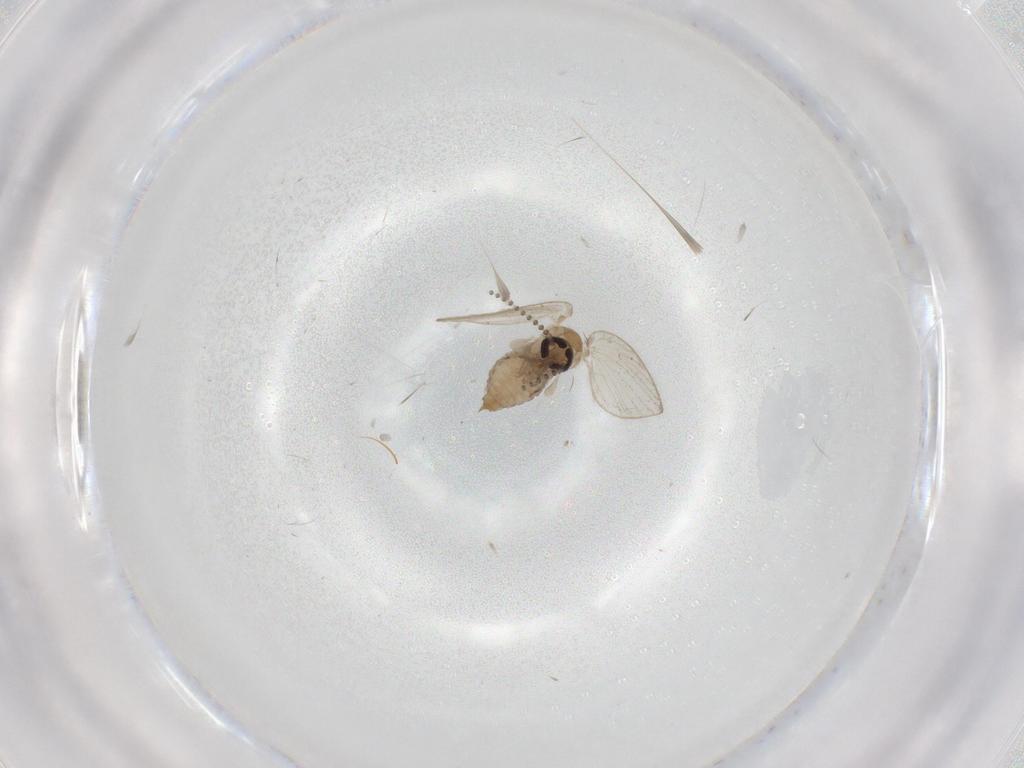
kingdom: Animalia
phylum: Arthropoda
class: Insecta
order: Diptera
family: Psychodidae
